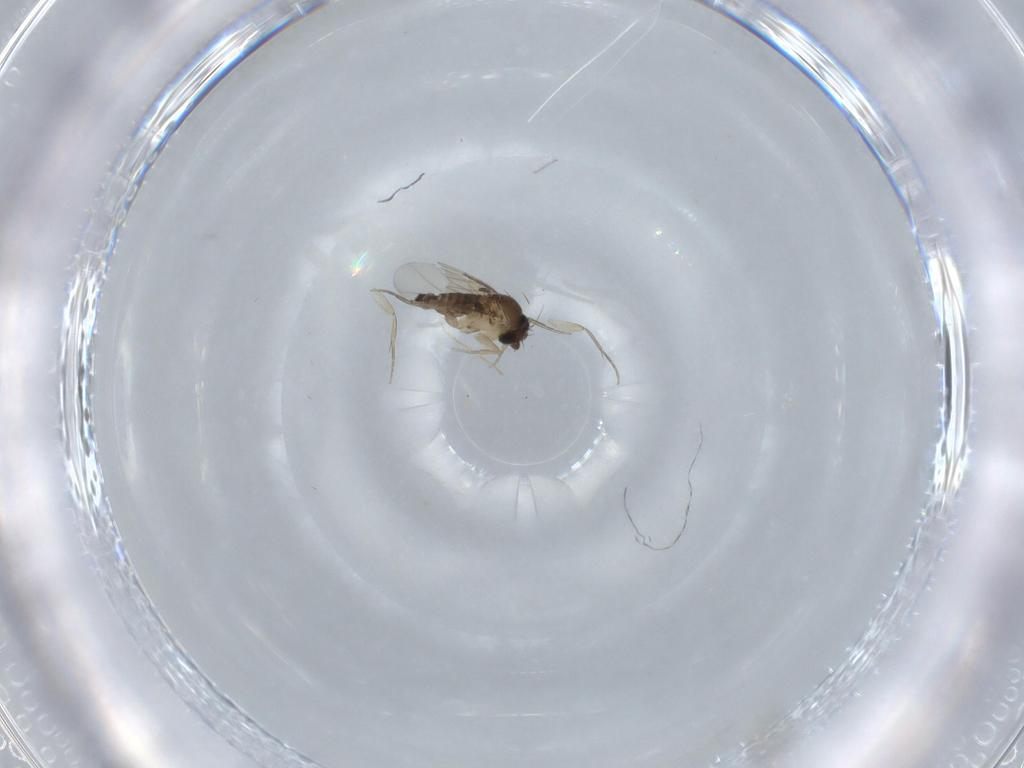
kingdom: Animalia
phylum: Arthropoda
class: Insecta
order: Diptera
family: Phoridae
